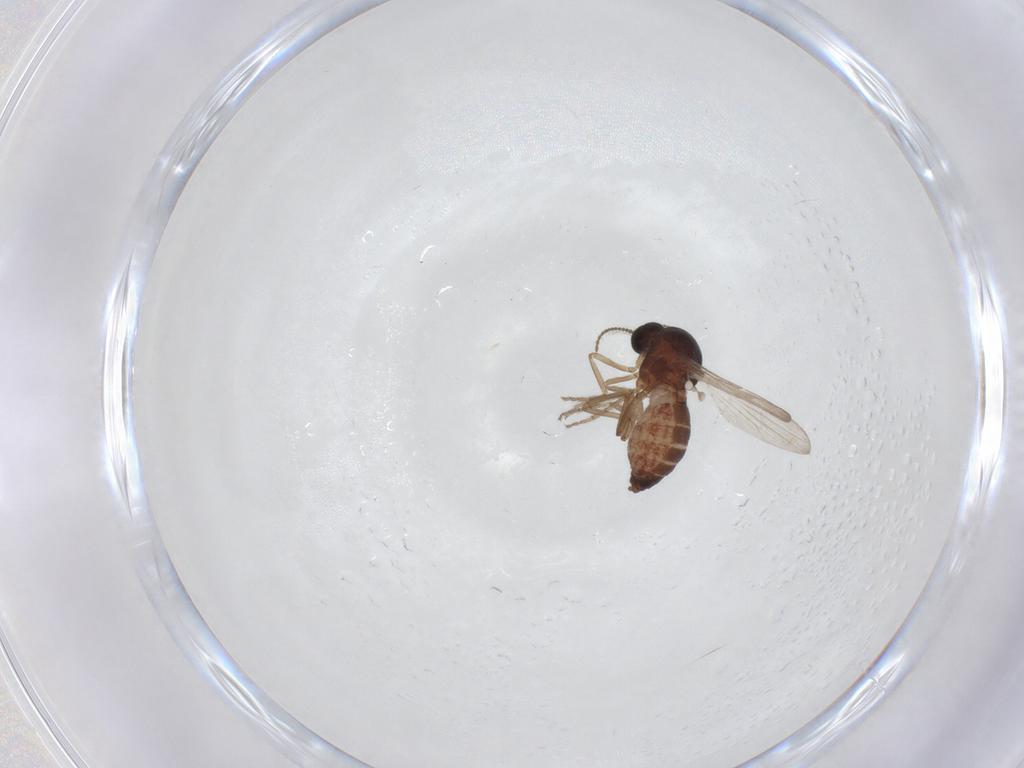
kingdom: Animalia
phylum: Arthropoda
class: Insecta
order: Diptera
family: Ceratopogonidae
